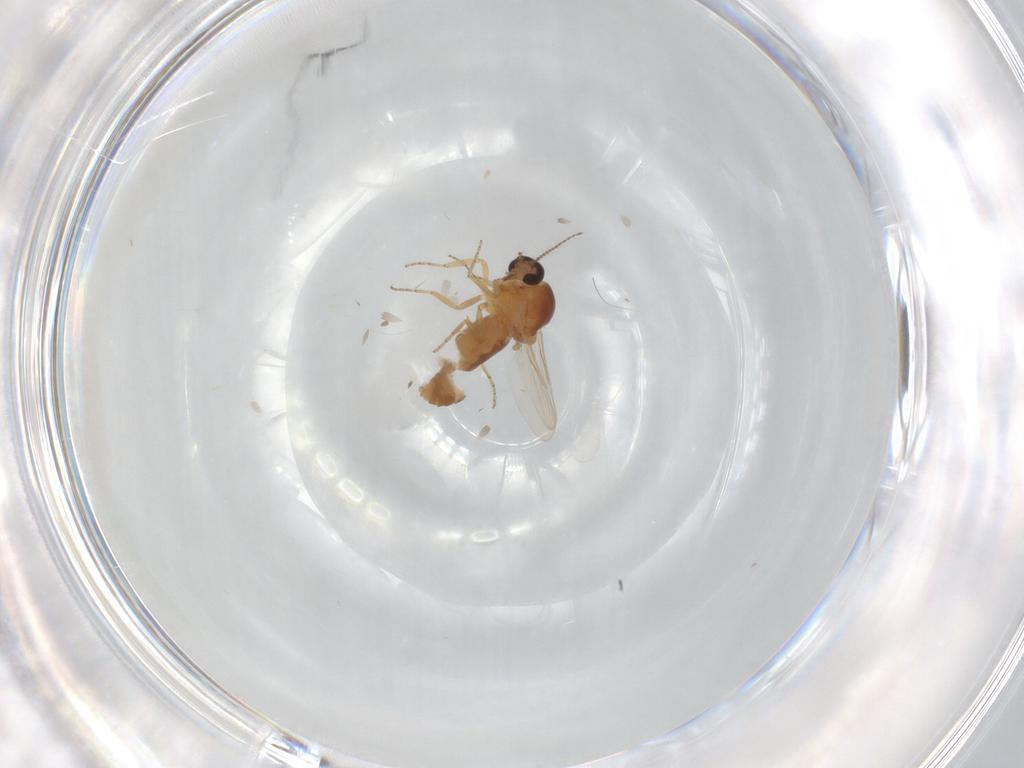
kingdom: Animalia
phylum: Arthropoda
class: Insecta
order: Diptera
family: Ceratopogonidae
